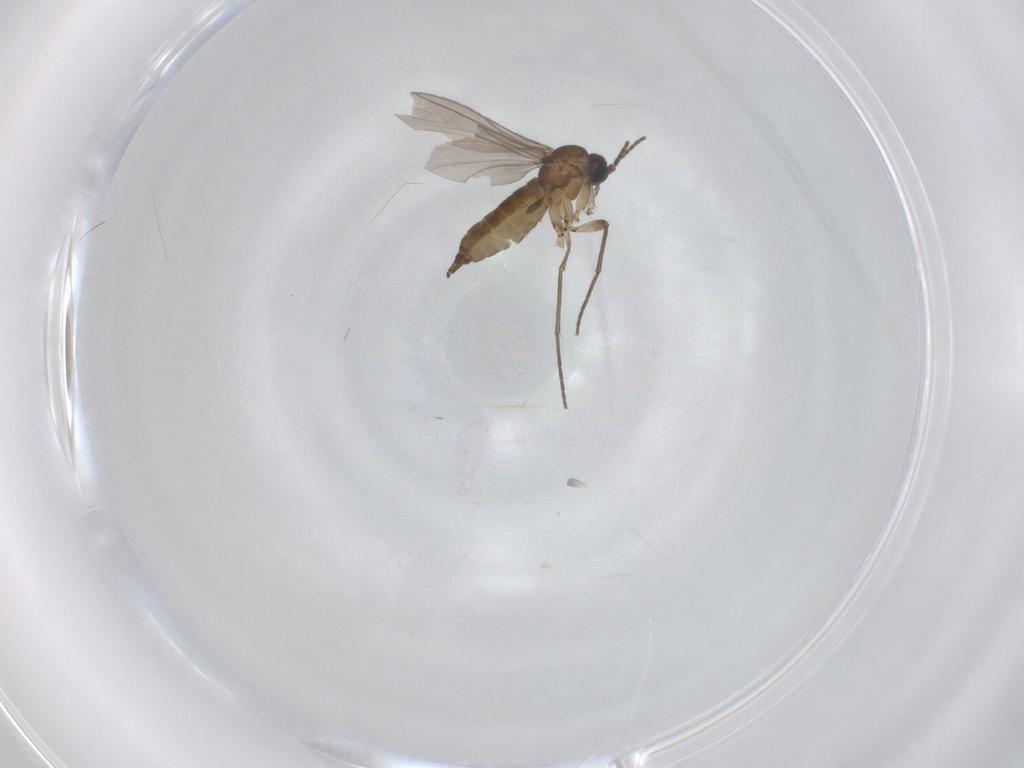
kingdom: Animalia
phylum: Arthropoda
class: Insecta
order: Diptera
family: Sciaridae
